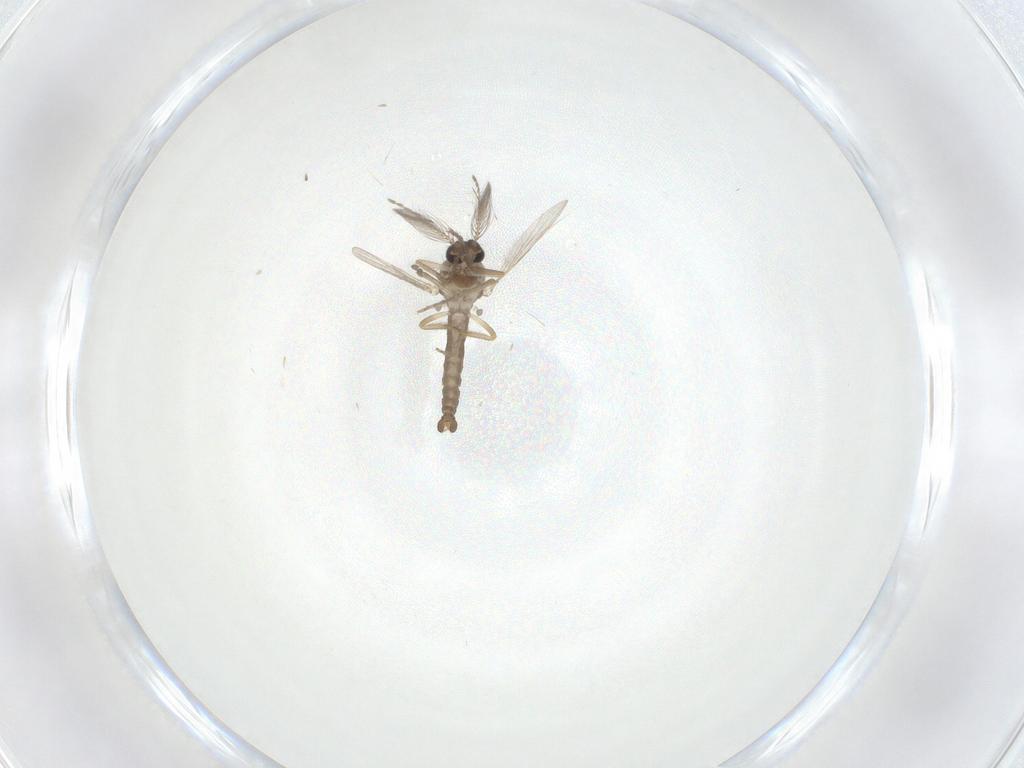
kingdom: Animalia
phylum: Arthropoda
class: Insecta
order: Diptera
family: Ceratopogonidae
